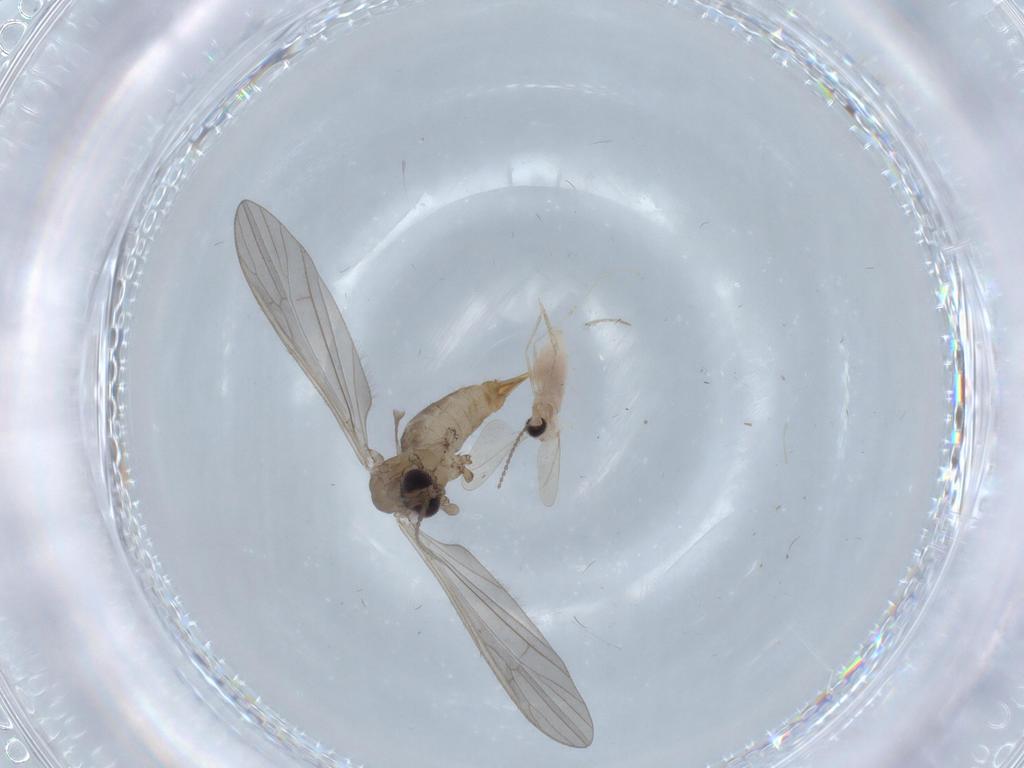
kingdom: Animalia
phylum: Arthropoda
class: Insecta
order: Diptera
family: Limoniidae
